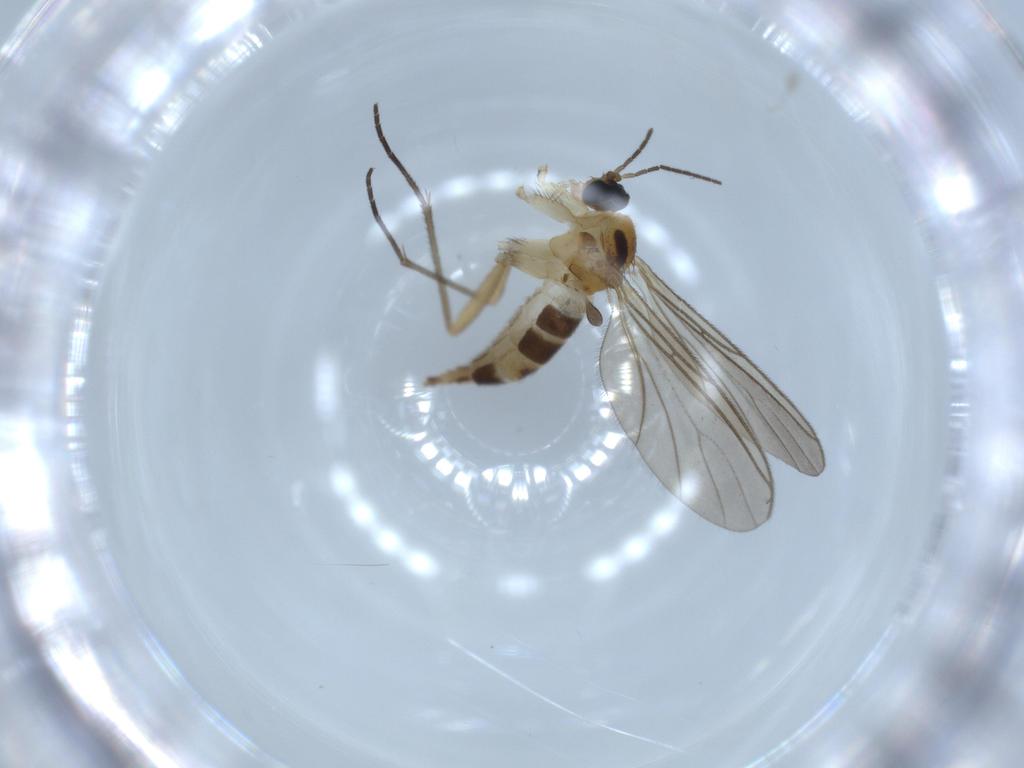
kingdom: Animalia
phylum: Arthropoda
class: Insecta
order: Diptera
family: Sciaridae
